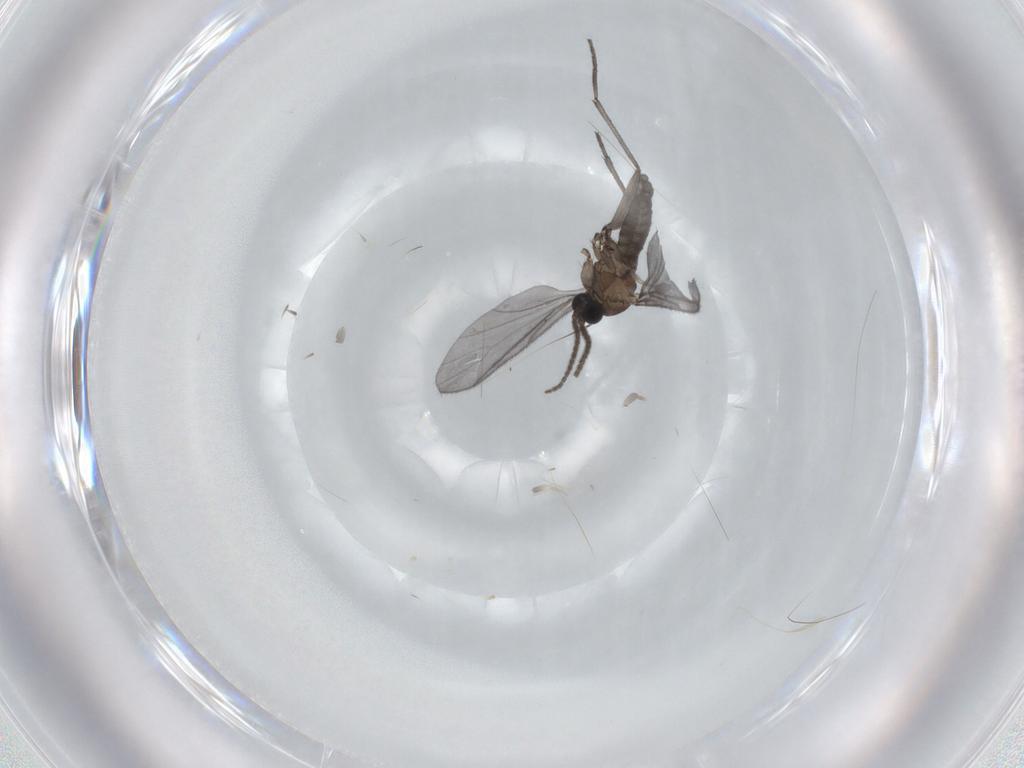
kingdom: Animalia
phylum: Arthropoda
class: Insecta
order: Diptera
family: Sciaridae
